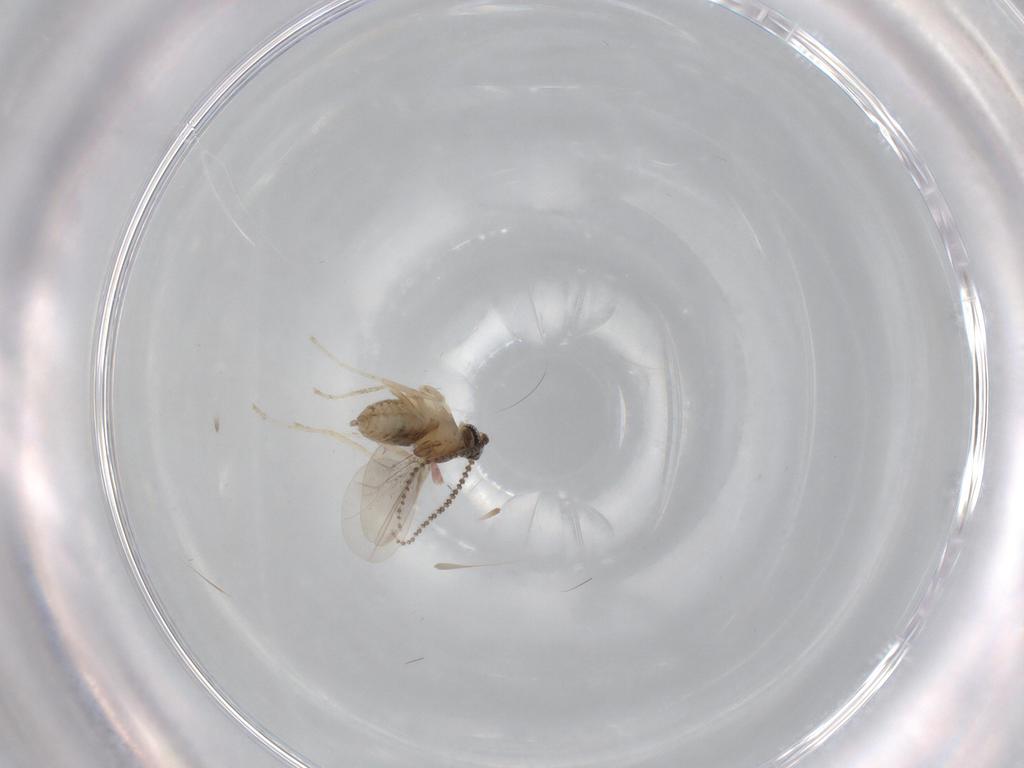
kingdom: Animalia
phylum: Arthropoda
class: Insecta
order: Diptera
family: Cecidomyiidae
